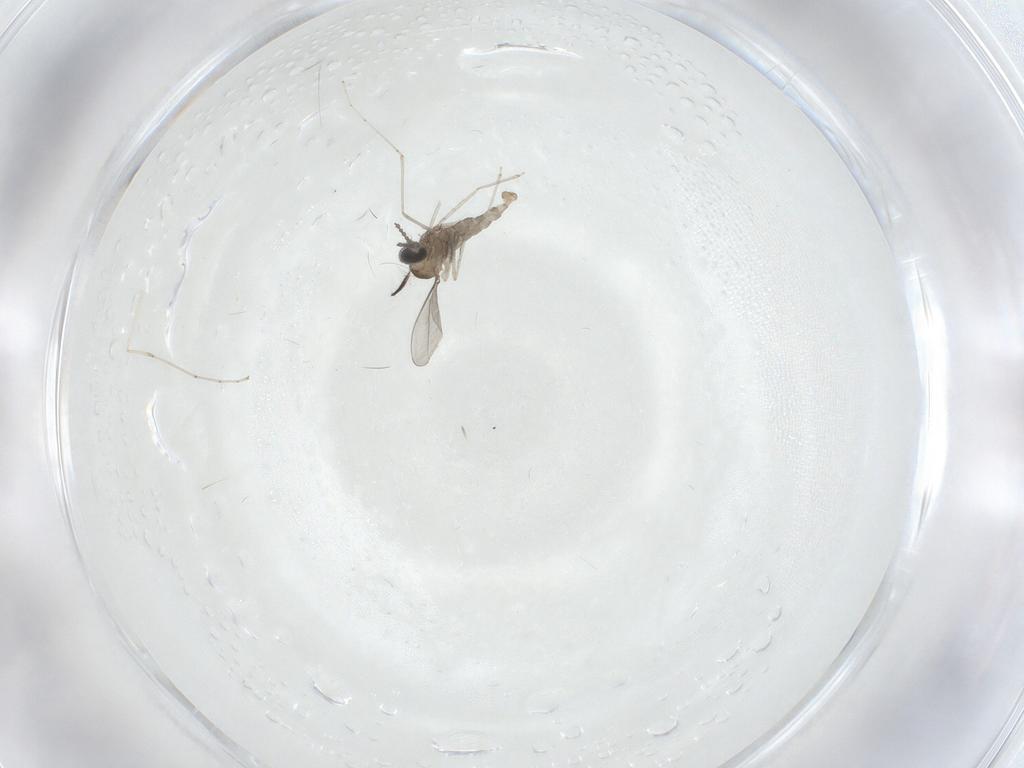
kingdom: Animalia
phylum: Arthropoda
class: Insecta
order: Diptera
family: Cecidomyiidae
